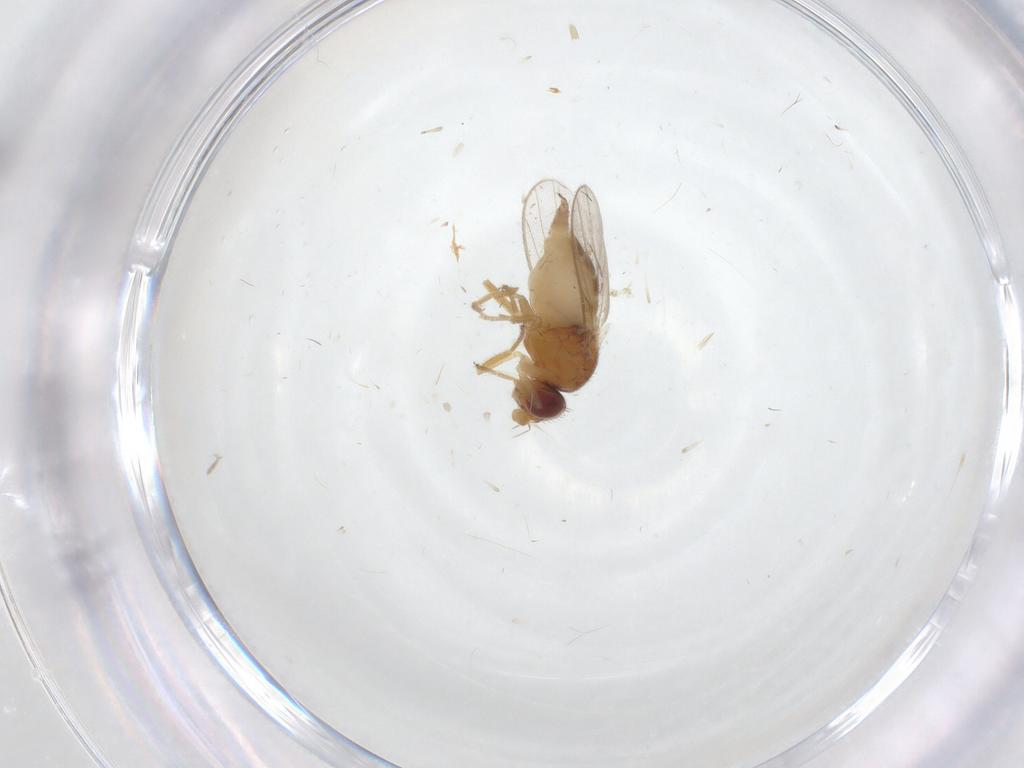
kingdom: Animalia
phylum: Arthropoda
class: Insecta
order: Diptera
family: Chloropidae
